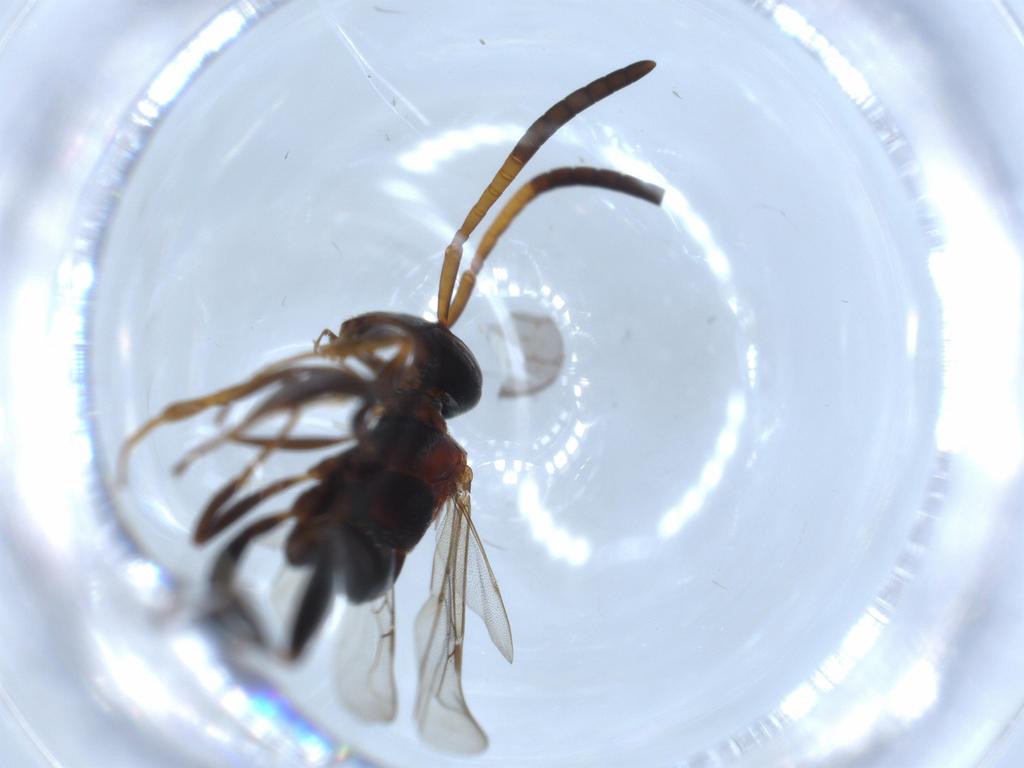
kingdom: Animalia
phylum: Arthropoda
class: Insecta
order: Hymenoptera
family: Evaniidae
